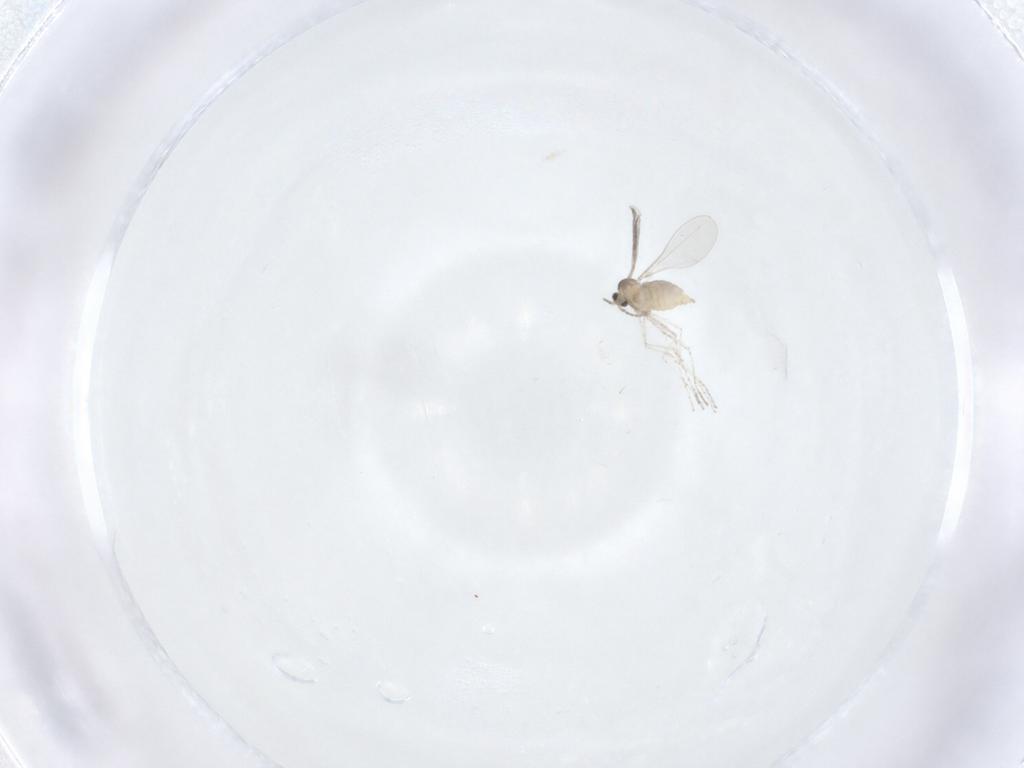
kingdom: Animalia
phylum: Arthropoda
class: Insecta
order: Diptera
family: Cecidomyiidae
